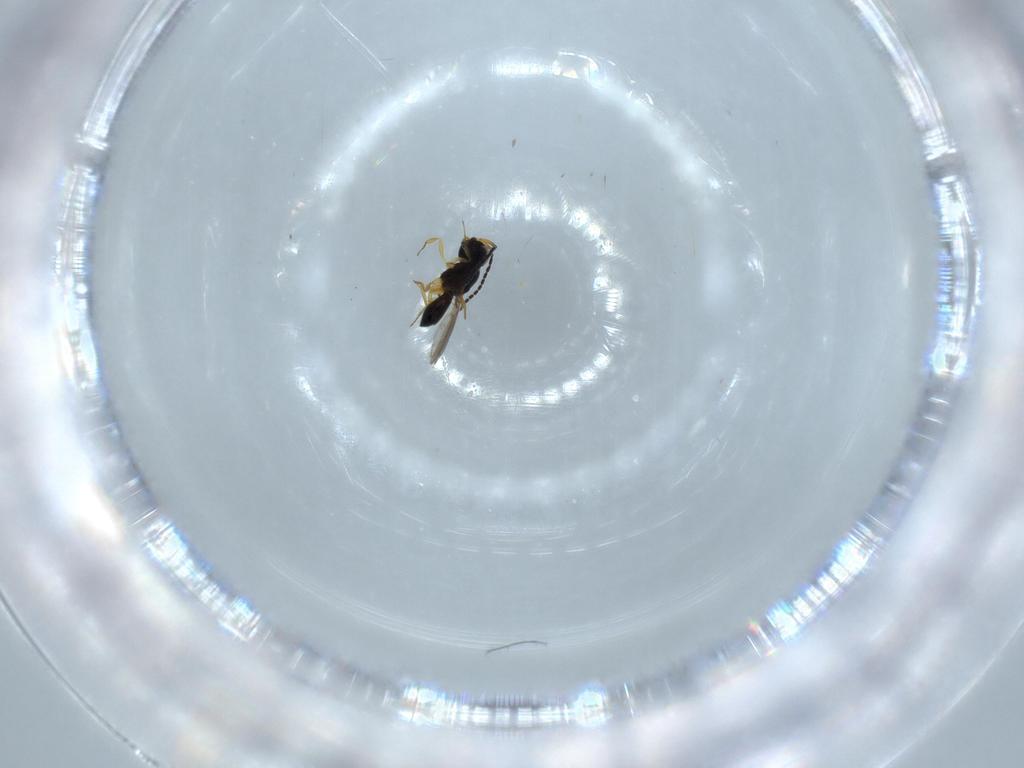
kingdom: Animalia
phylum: Arthropoda
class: Insecta
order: Hymenoptera
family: Scelionidae
